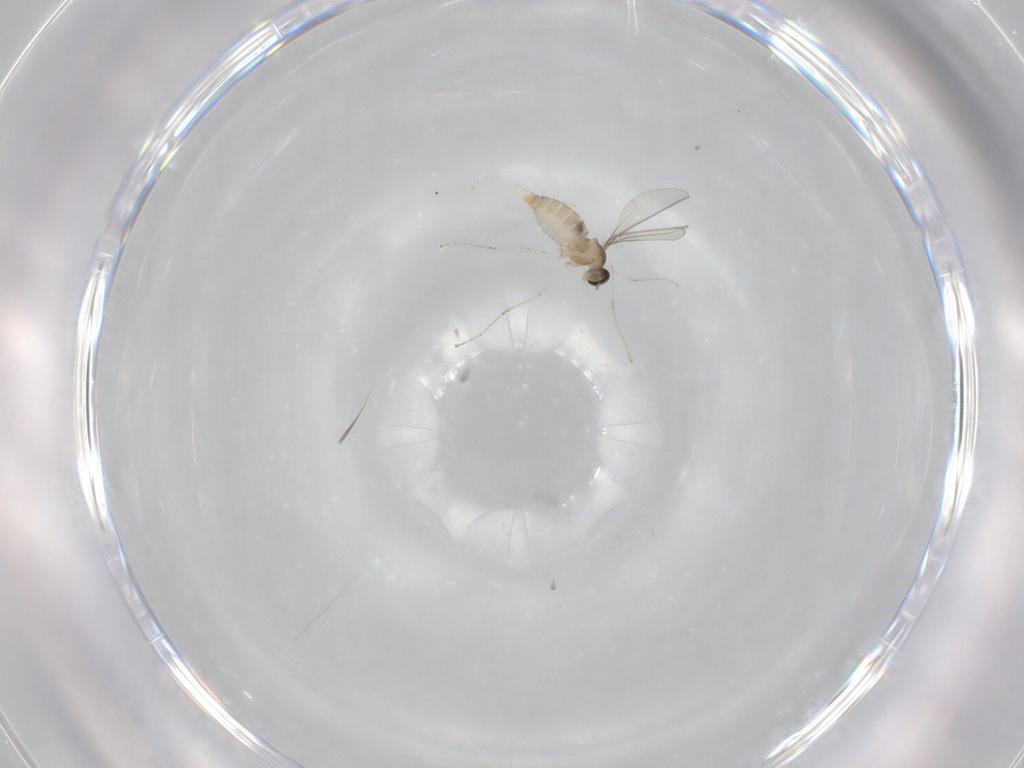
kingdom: Animalia
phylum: Arthropoda
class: Insecta
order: Diptera
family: Cecidomyiidae
